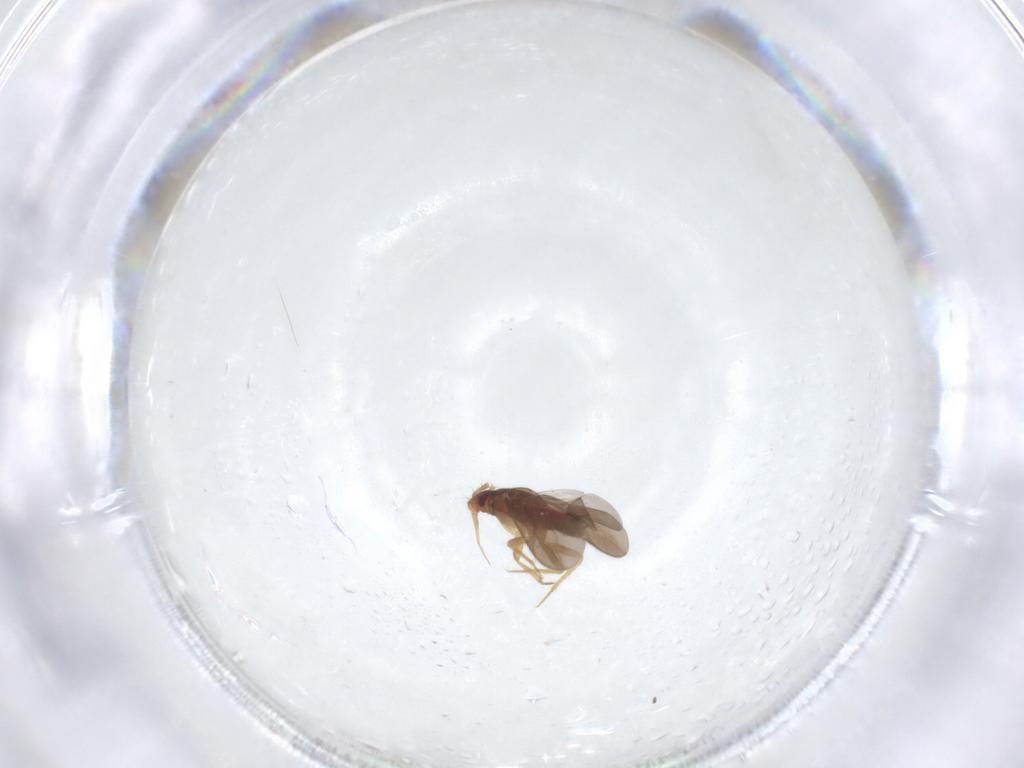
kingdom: Animalia
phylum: Arthropoda
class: Insecta
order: Hemiptera
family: Ceratocombidae
